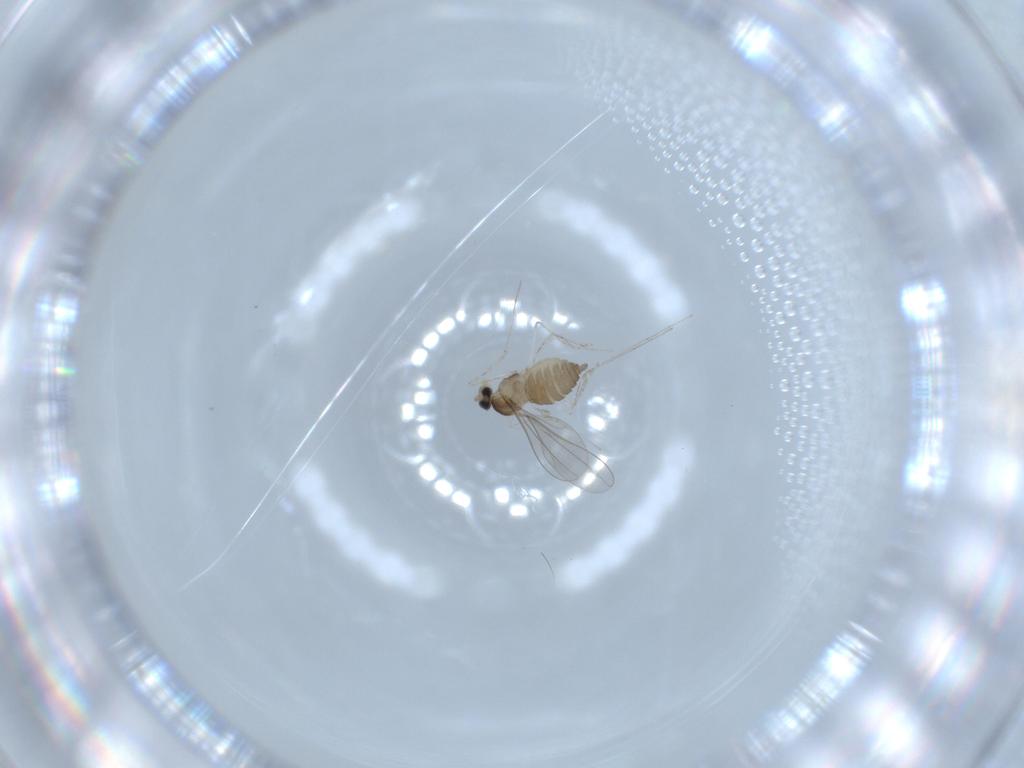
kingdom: Animalia
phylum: Arthropoda
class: Insecta
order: Diptera
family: Cecidomyiidae
